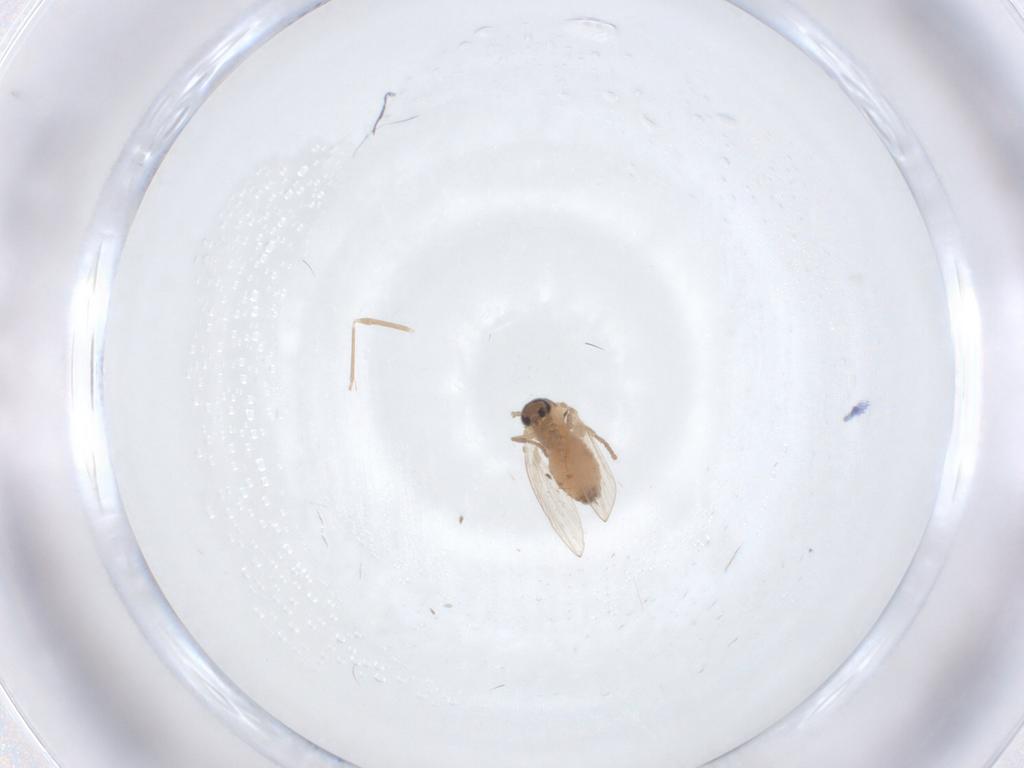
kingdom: Animalia
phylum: Arthropoda
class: Insecta
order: Diptera
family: Psychodidae
